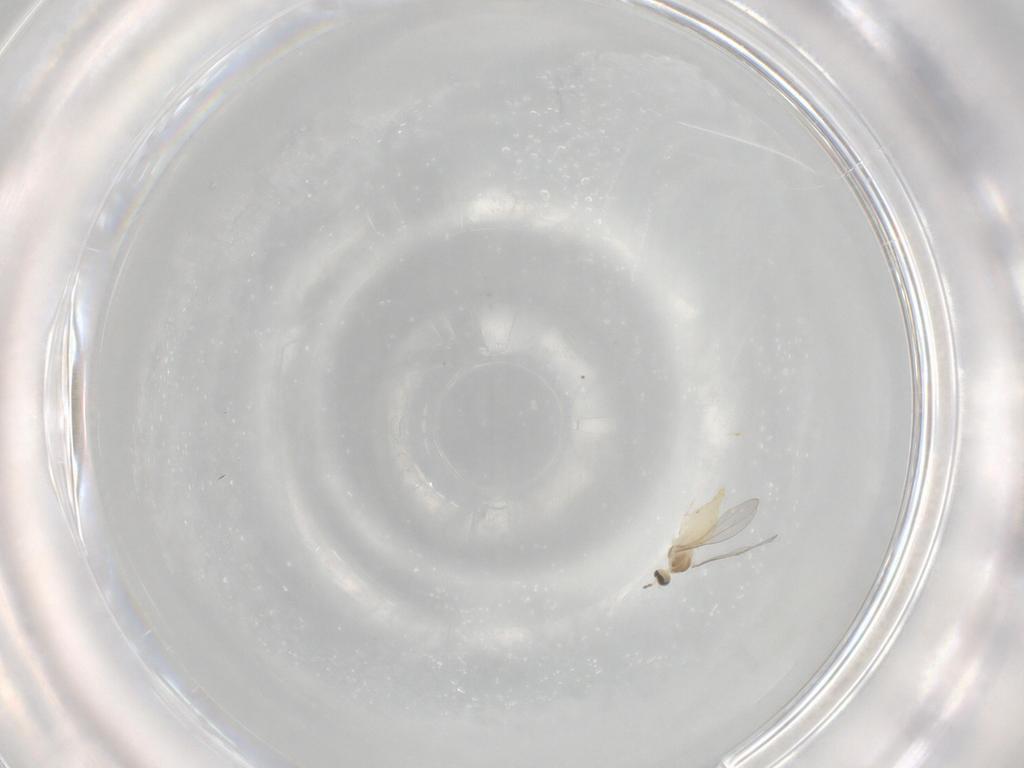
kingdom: Animalia
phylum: Arthropoda
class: Insecta
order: Diptera
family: Cecidomyiidae
